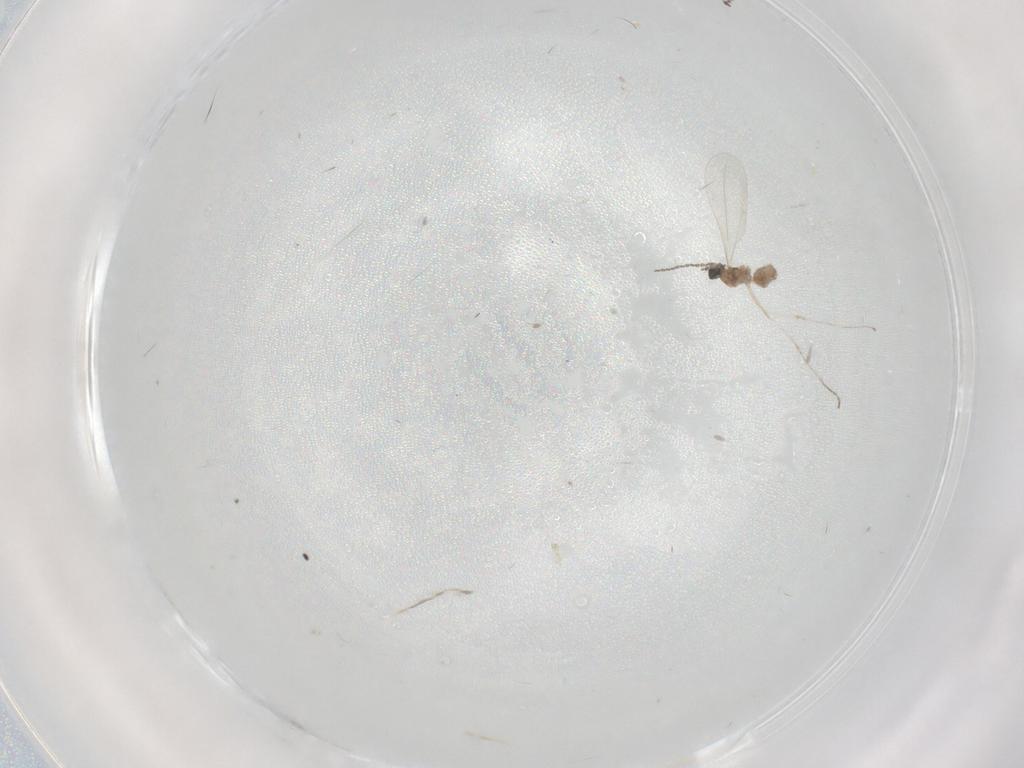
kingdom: Animalia
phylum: Arthropoda
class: Insecta
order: Diptera
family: Cecidomyiidae
